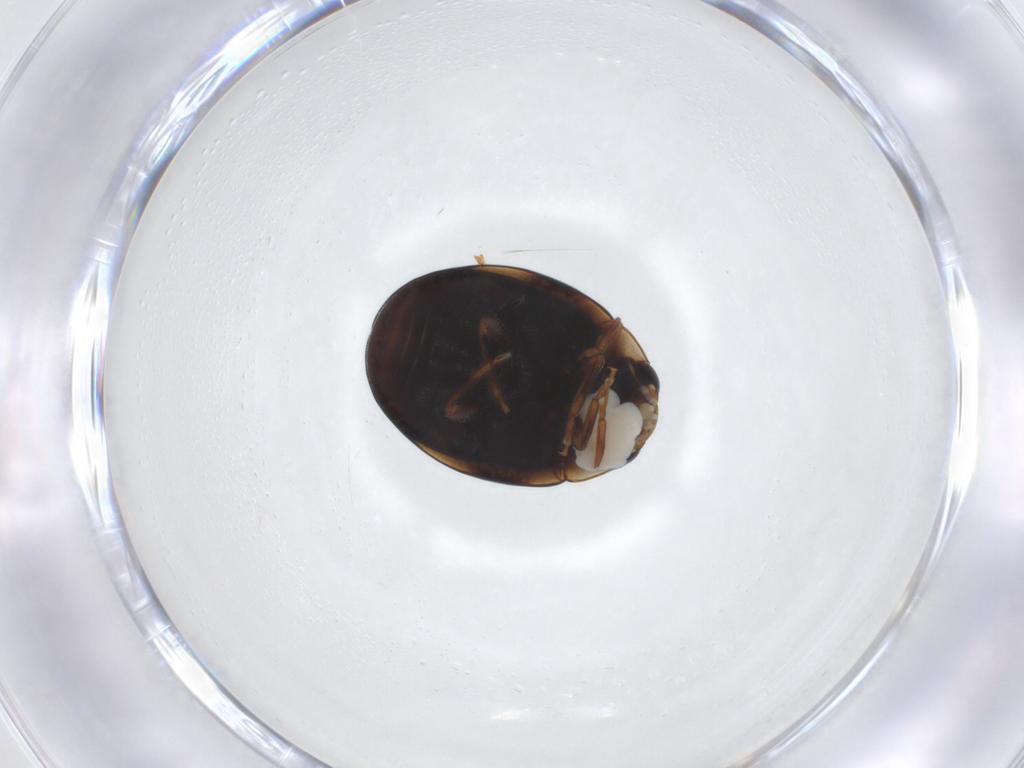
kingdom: Animalia
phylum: Arthropoda
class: Insecta
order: Coleoptera
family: Coccinellidae
